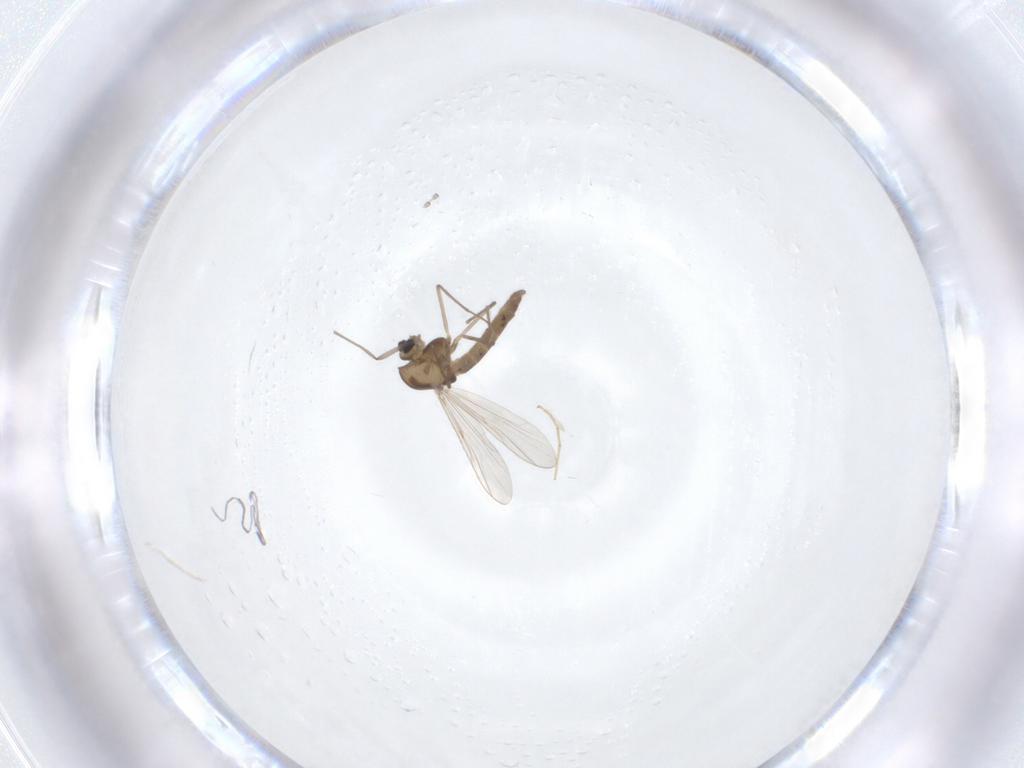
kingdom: Animalia
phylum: Arthropoda
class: Insecta
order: Diptera
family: Chironomidae
